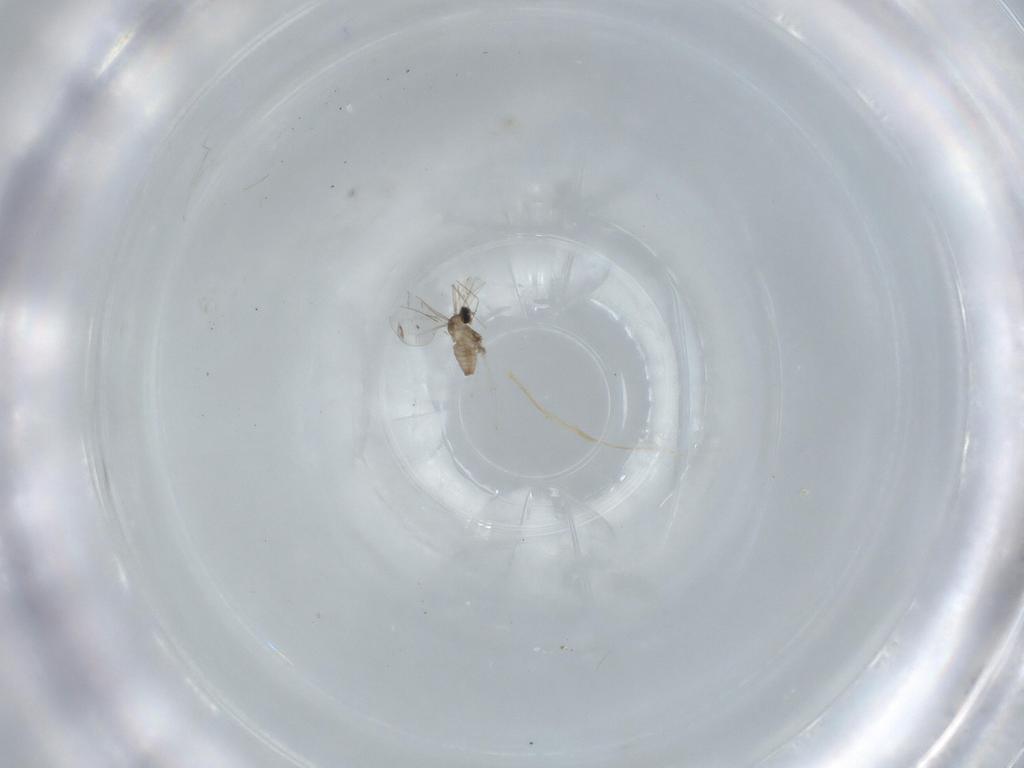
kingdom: Animalia
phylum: Arthropoda
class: Insecta
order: Diptera
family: Cecidomyiidae
